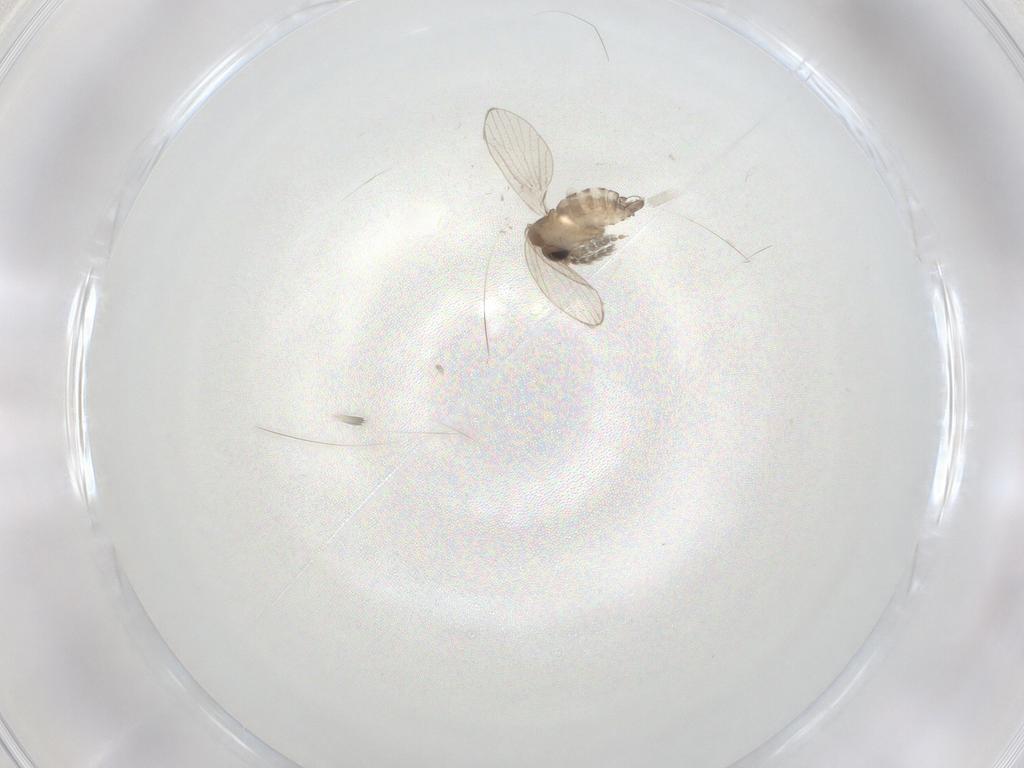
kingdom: Animalia
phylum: Arthropoda
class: Insecta
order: Diptera
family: Psychodidae
